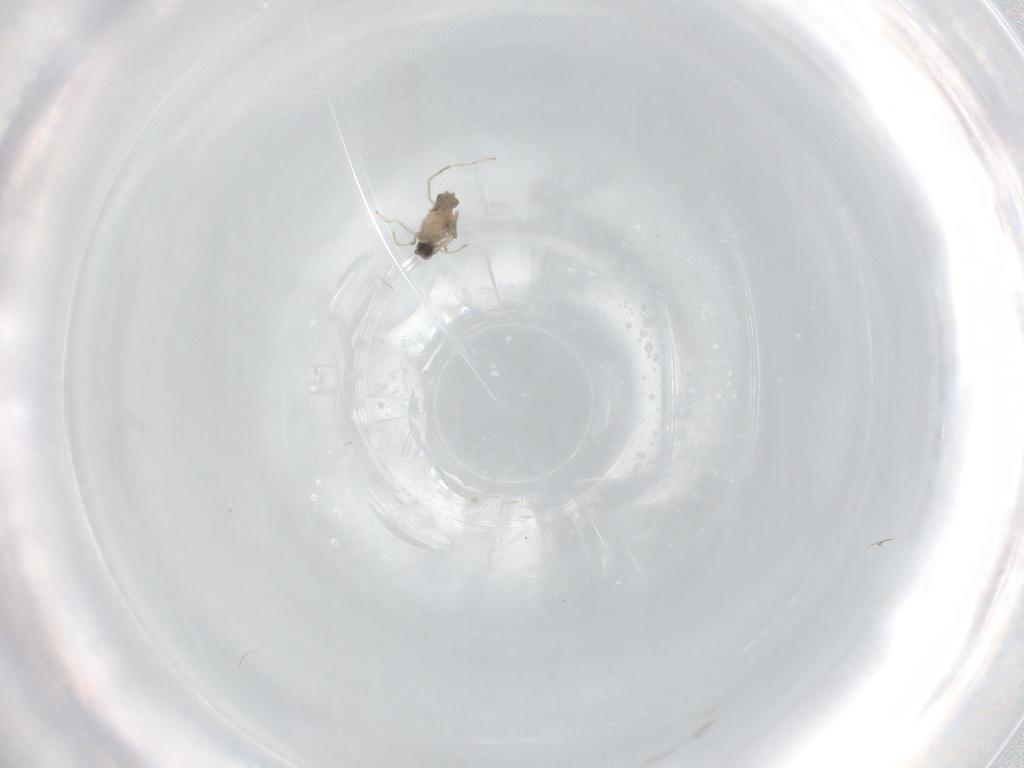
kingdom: Animalia
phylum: Arthropoda
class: Insecta
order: Diptera
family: Cecidomyiidae
